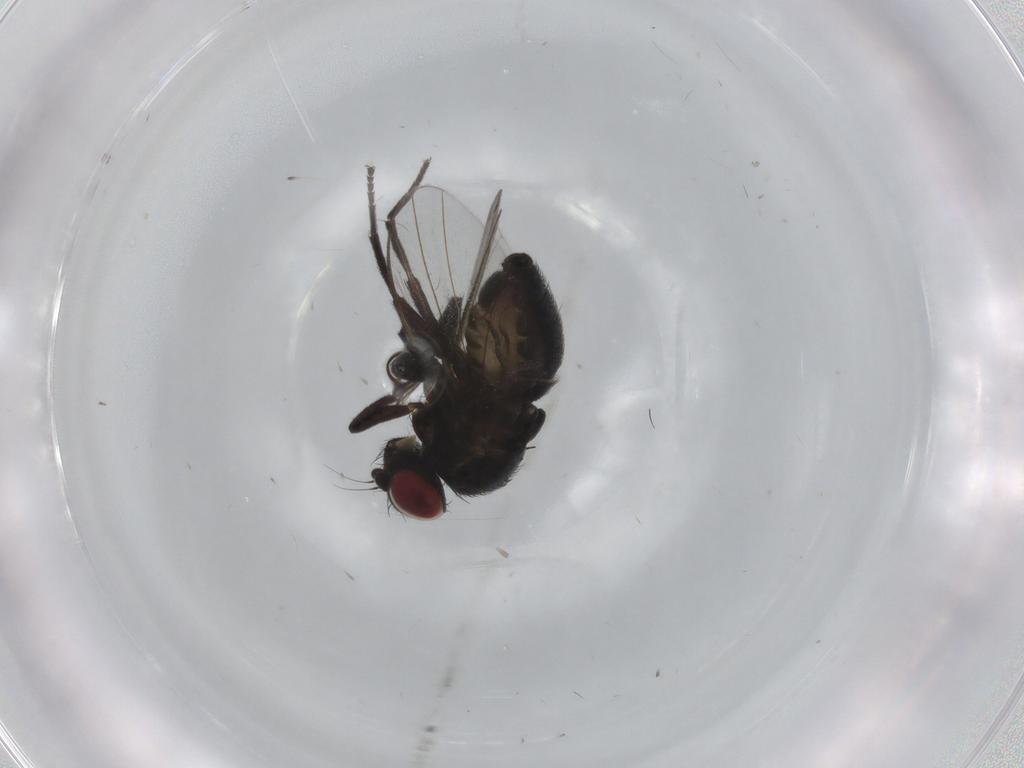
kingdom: Animalia
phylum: Arthropoda
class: Insecta
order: Diptera
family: Agromyzidae
